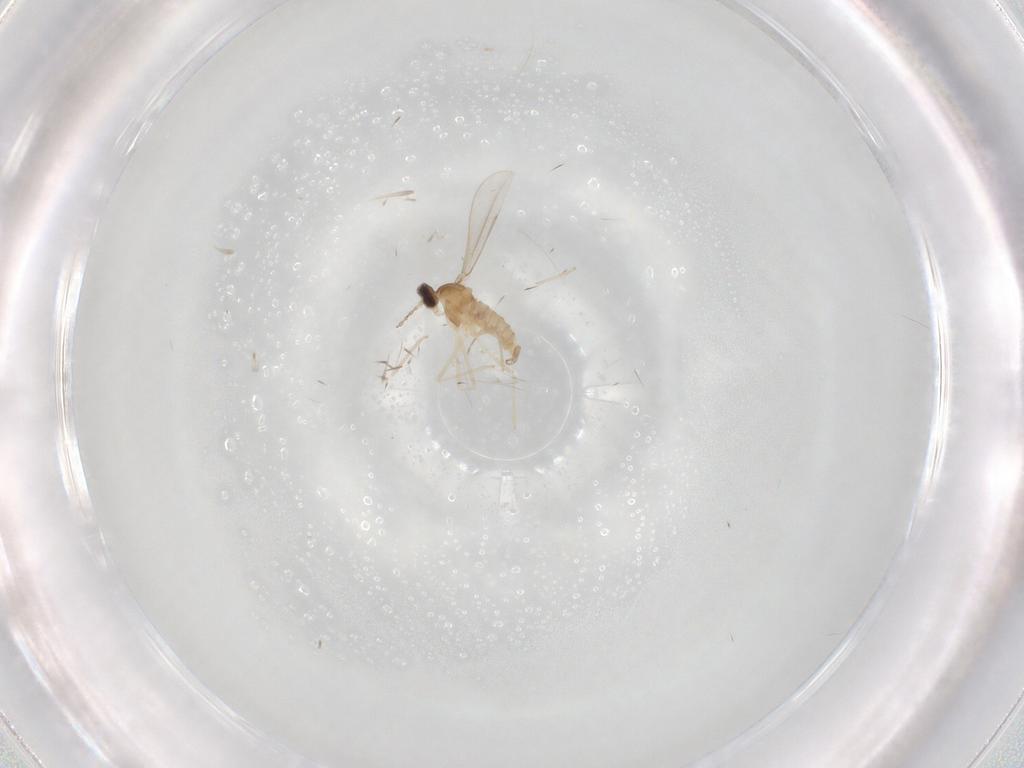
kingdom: Animalia
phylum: Arthropoda
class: Insecta
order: Diptera
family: Cecidomyiidae
